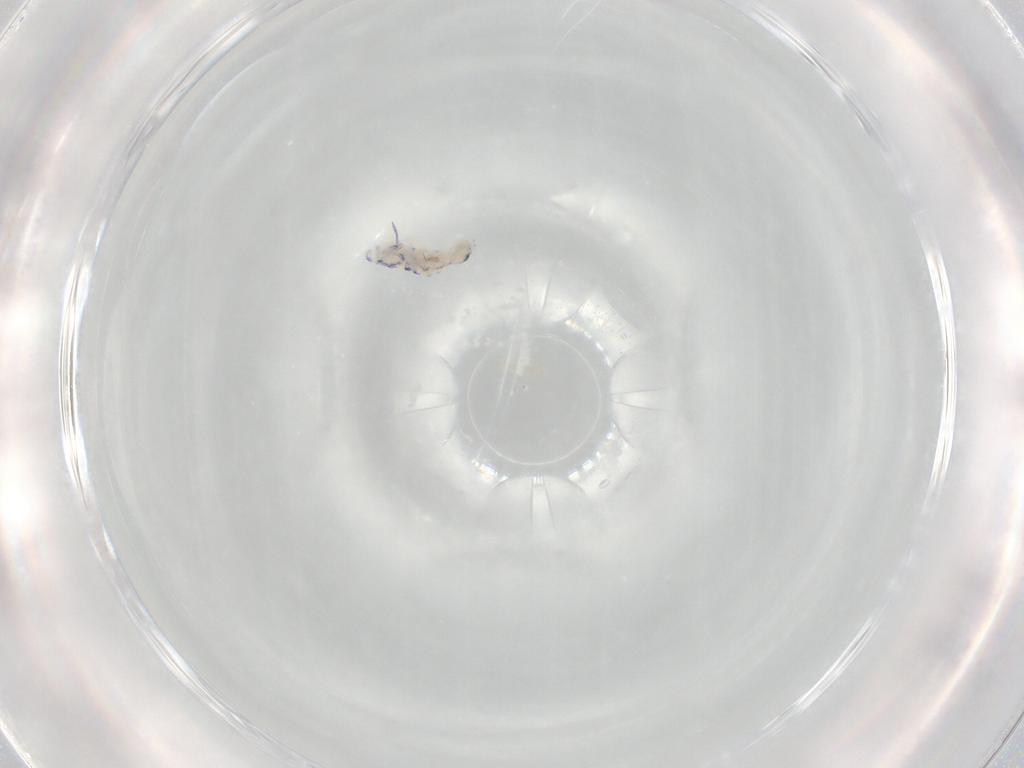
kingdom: Animalia
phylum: Arthropoda
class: Collembola
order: Entomobryomorpha
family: Entomobryidae
